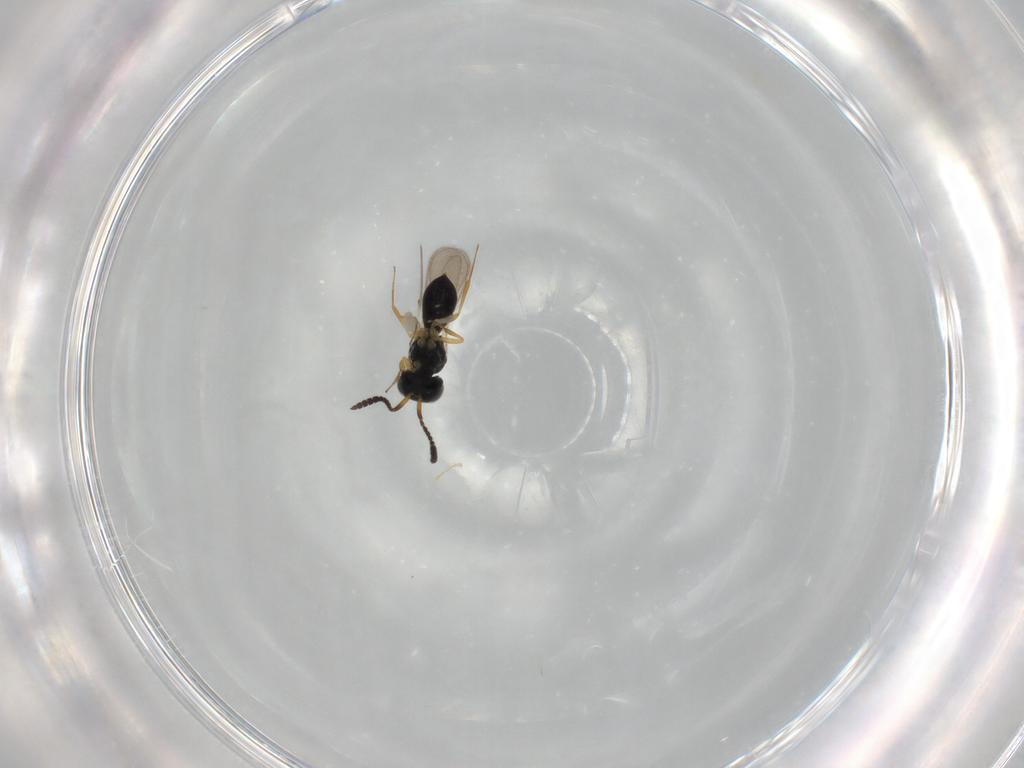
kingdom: Animalia
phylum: Arthropoda
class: Insecta
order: Hymenoptera
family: Scelionidae
